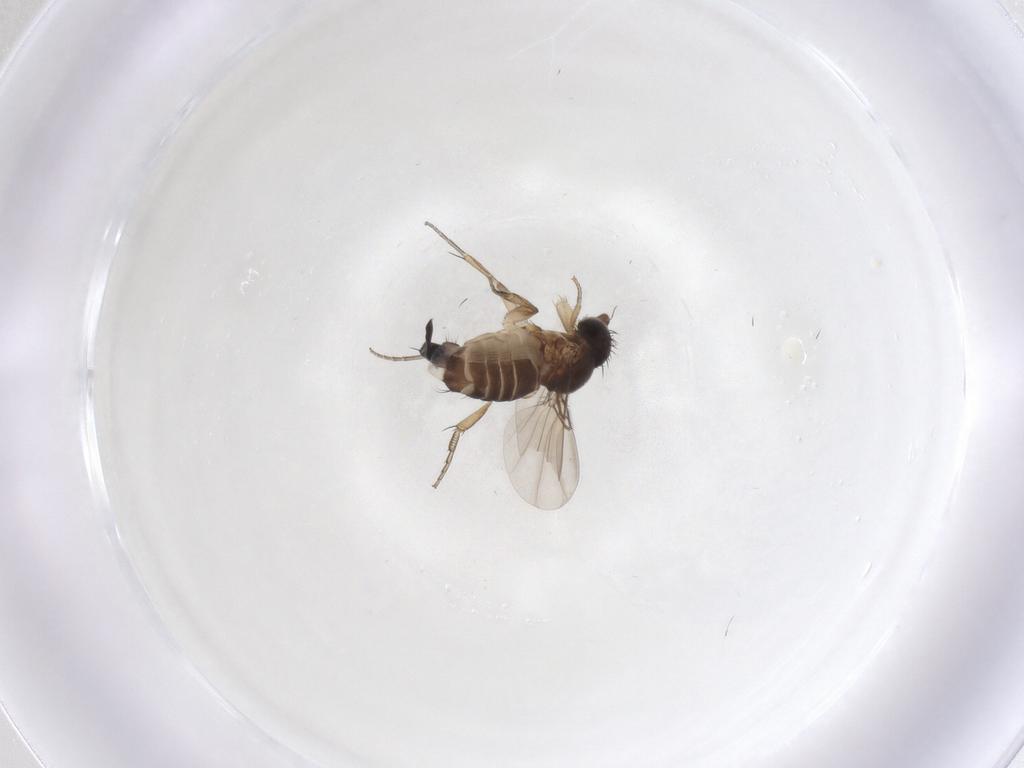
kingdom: Animalia
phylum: Arthropoda
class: Insecta
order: Diptera
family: Phoridae
